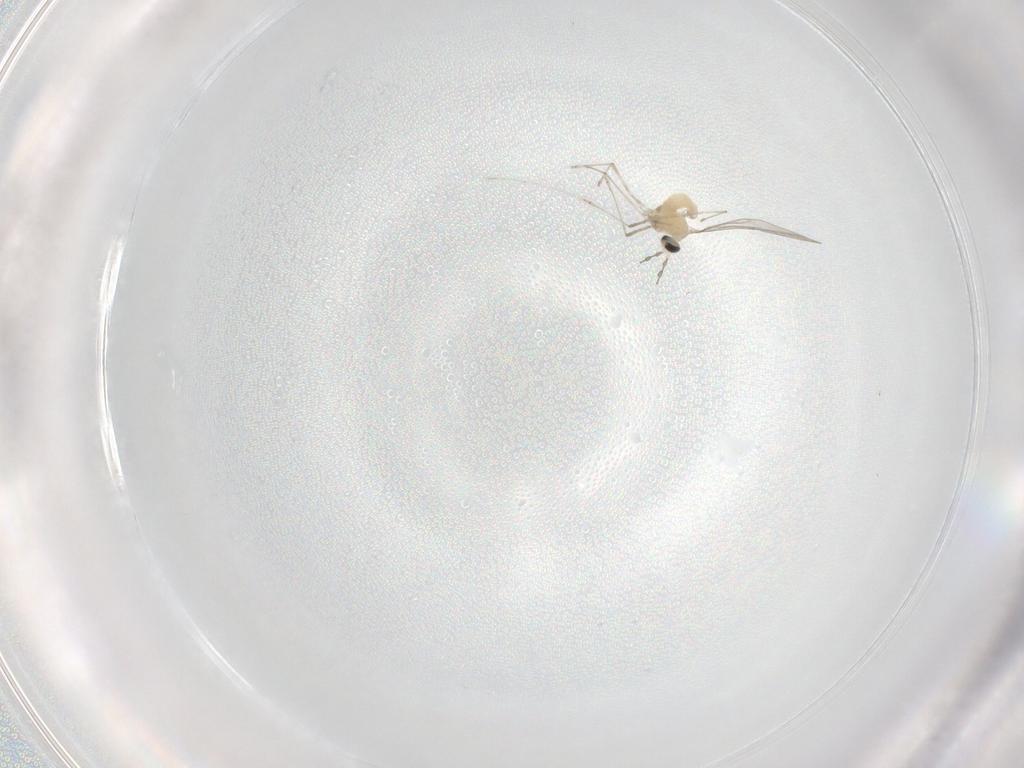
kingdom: Animalia
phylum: Arthropoda
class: Insecta
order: Diptera
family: Cecidomyiidae
